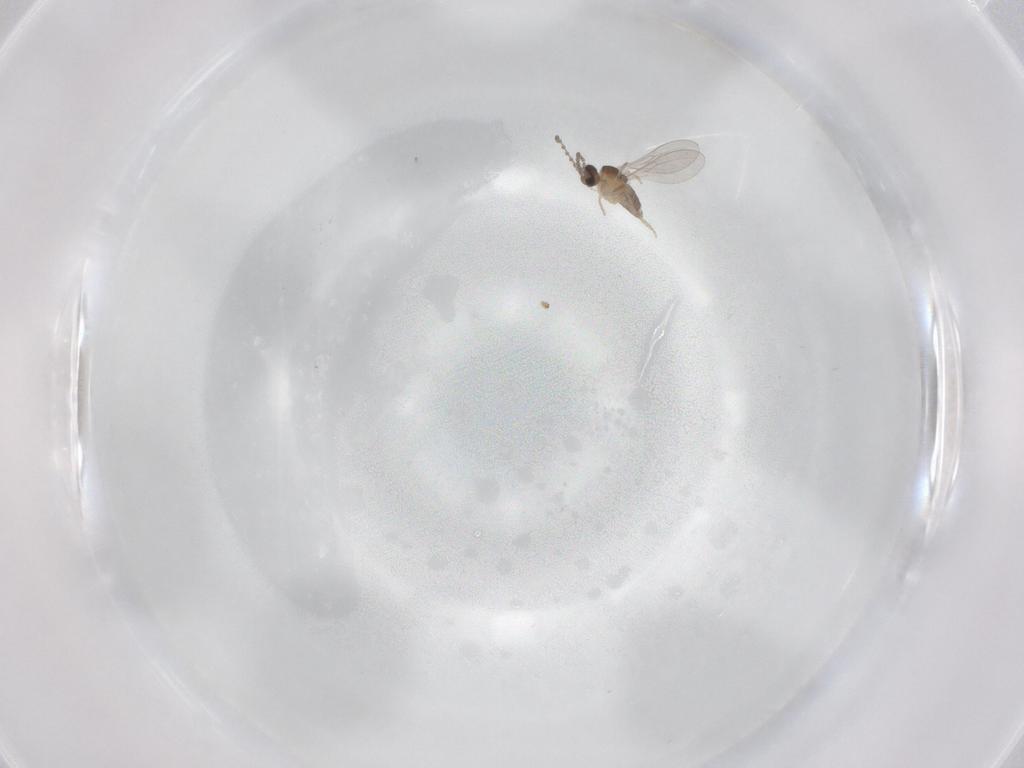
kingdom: Animalia
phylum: Arthropoda
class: Insecta
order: Diptera
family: Chironomidae
